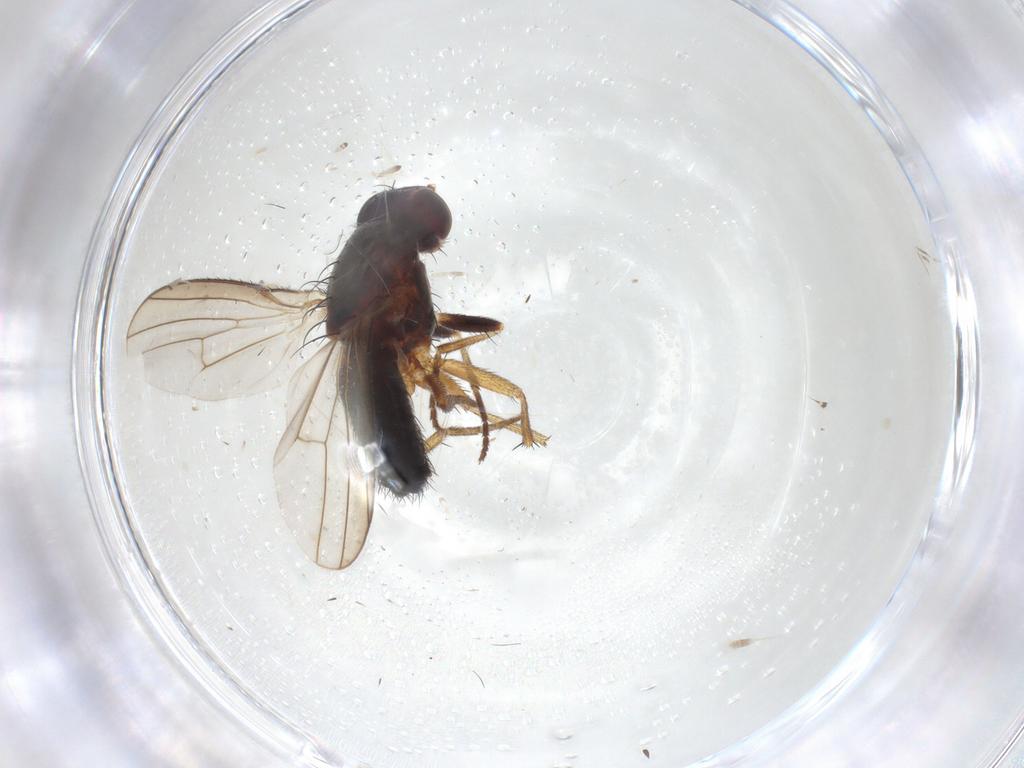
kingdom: Animalia
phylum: Arthropoda
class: Insecta
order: Diptera
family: Heleomyzidae
